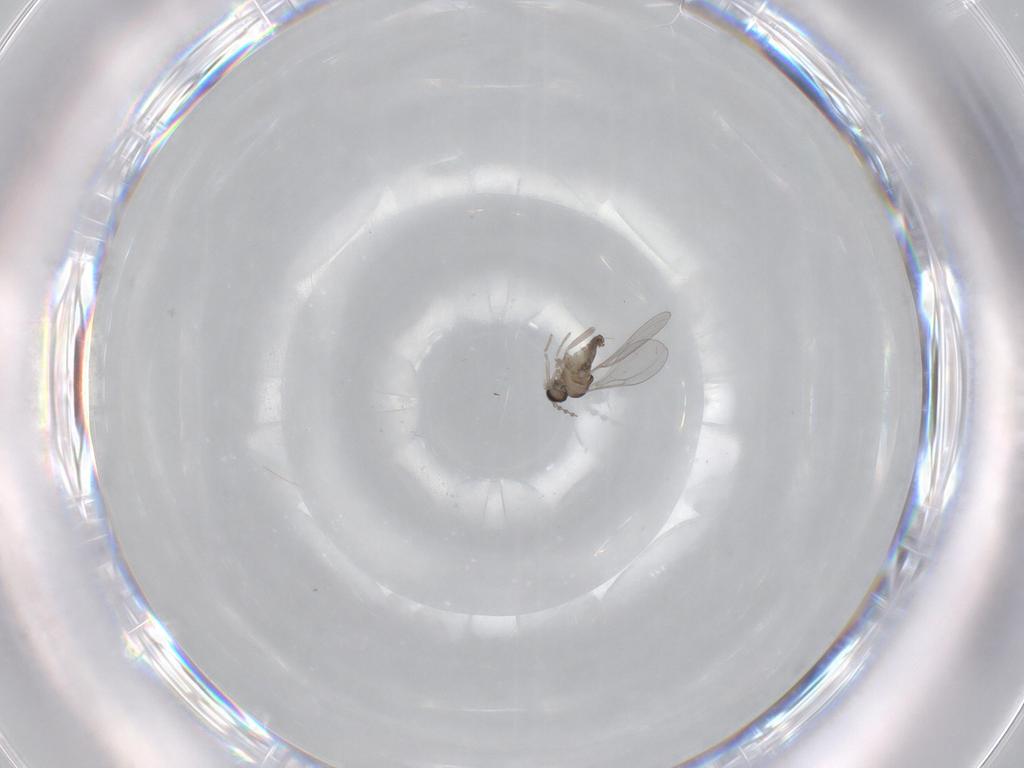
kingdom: Animalia
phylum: Arthropoda
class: Insecta
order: Diptera
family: Cecidomyiidae
